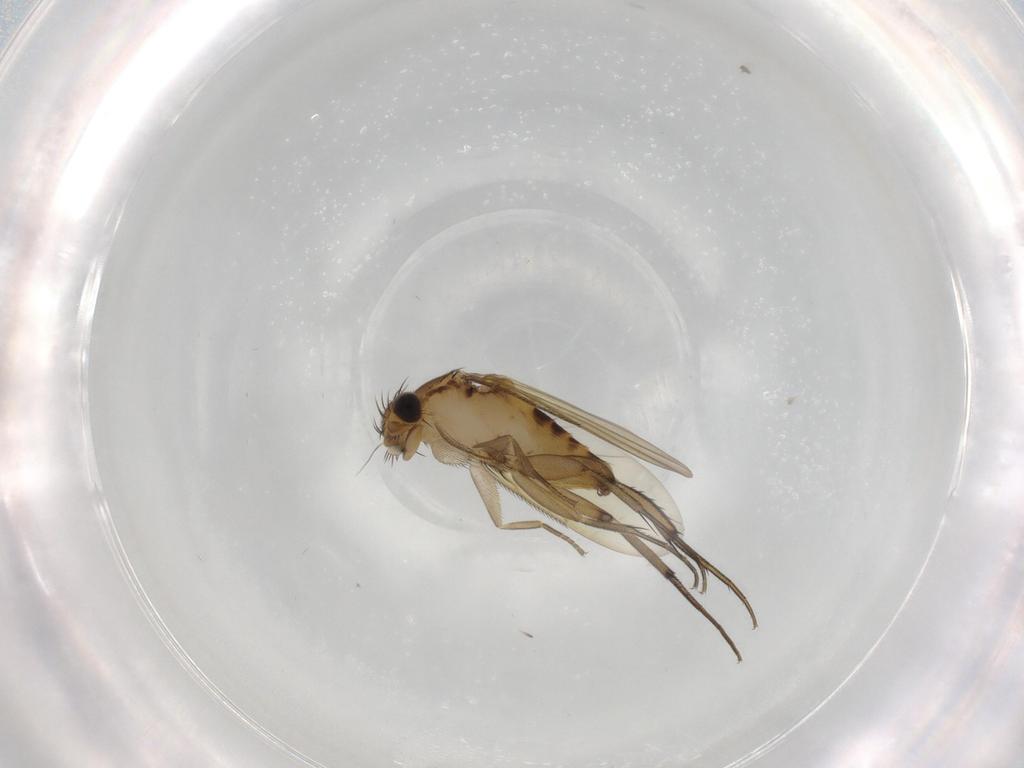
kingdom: Animalia
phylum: Arthropoda
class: Insecta
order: Diptera
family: Phoridae
